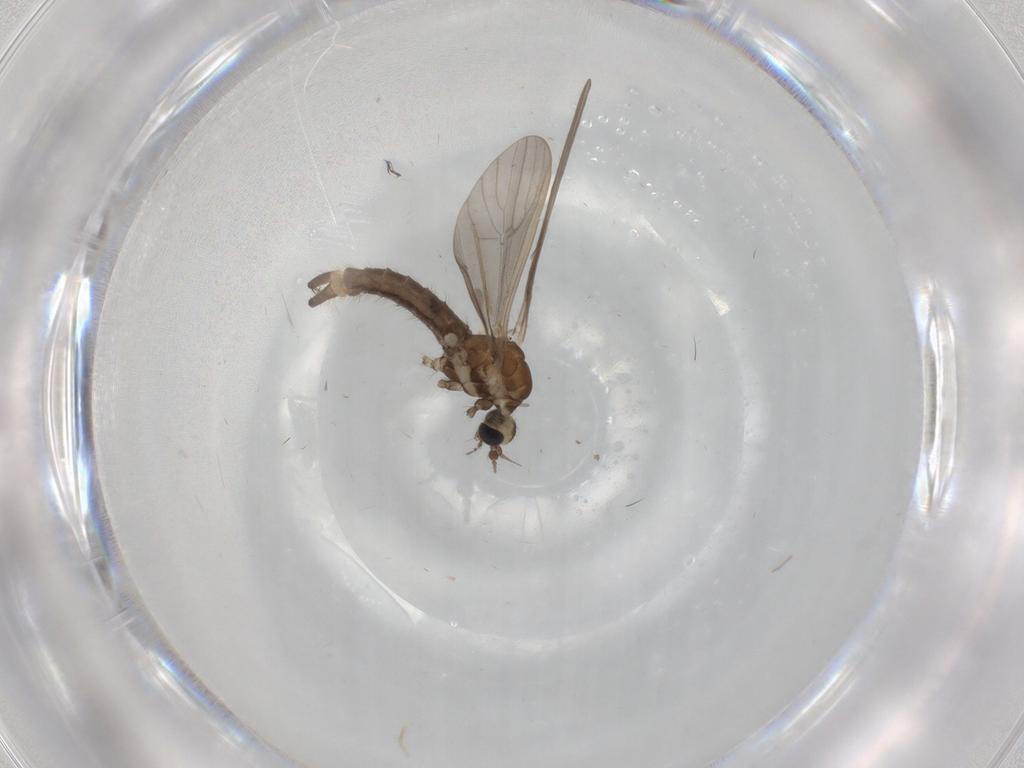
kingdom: Animalia
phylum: Arthropoda
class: Insecta
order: Diptera
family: Limoniidae
